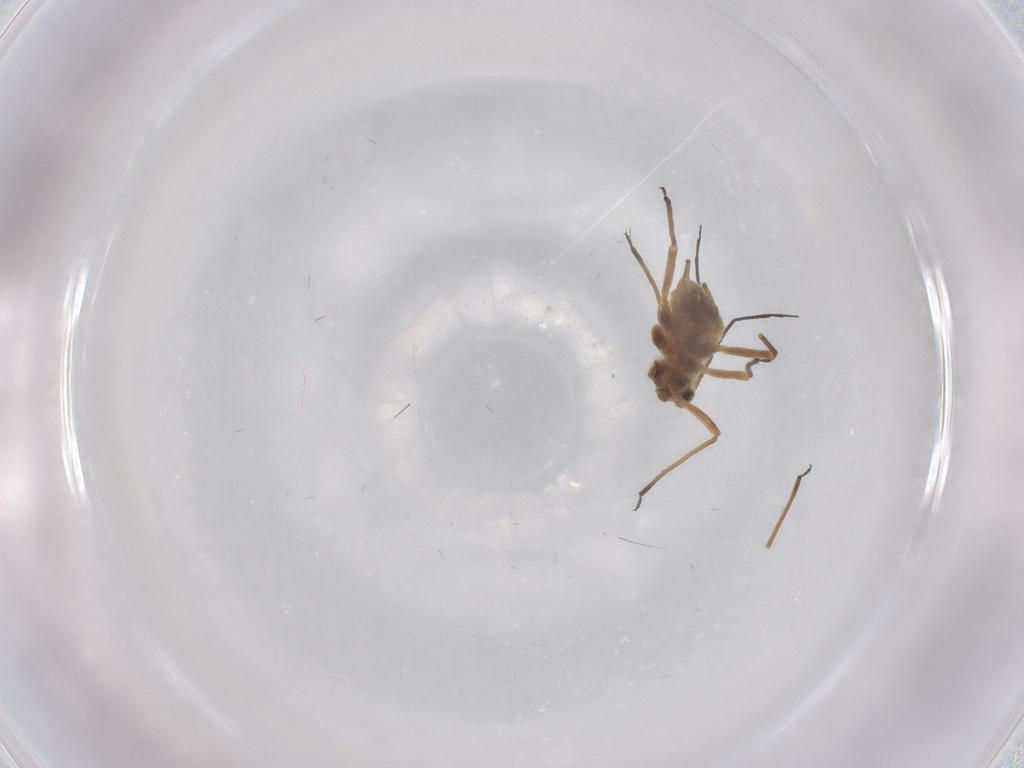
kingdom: Animalia
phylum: Arthropoda
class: Insecta
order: Hemiptera
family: Aphididae
